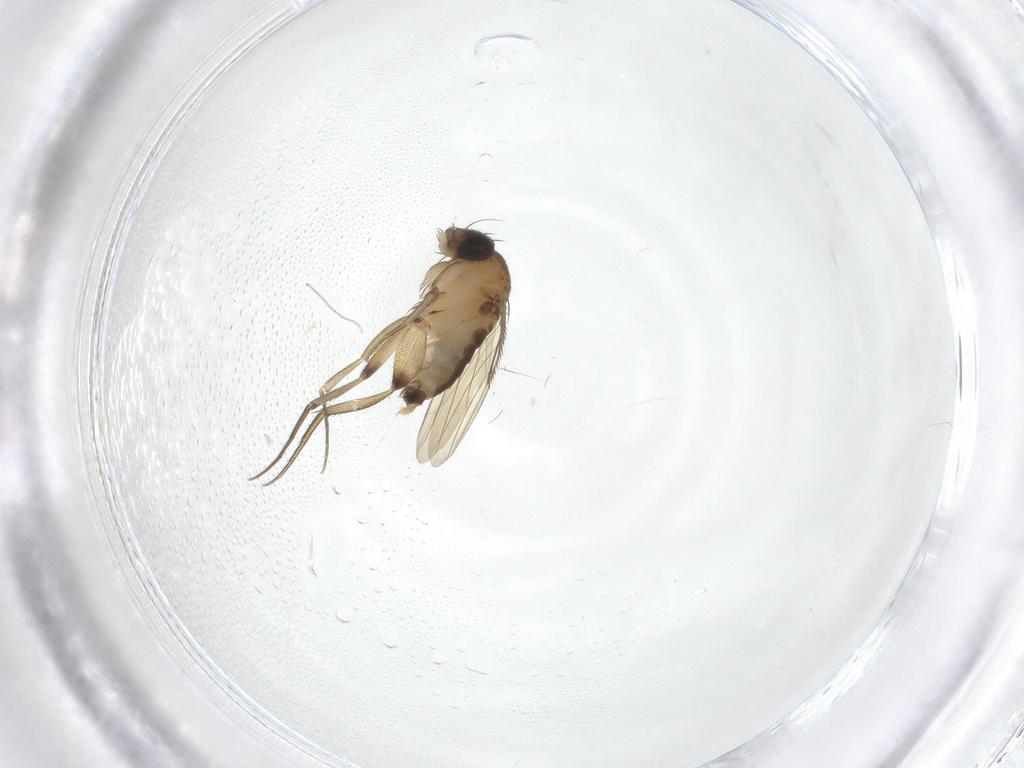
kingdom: Animalia
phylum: Arthropoda
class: Insecta
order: Diptera
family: Phoridae
